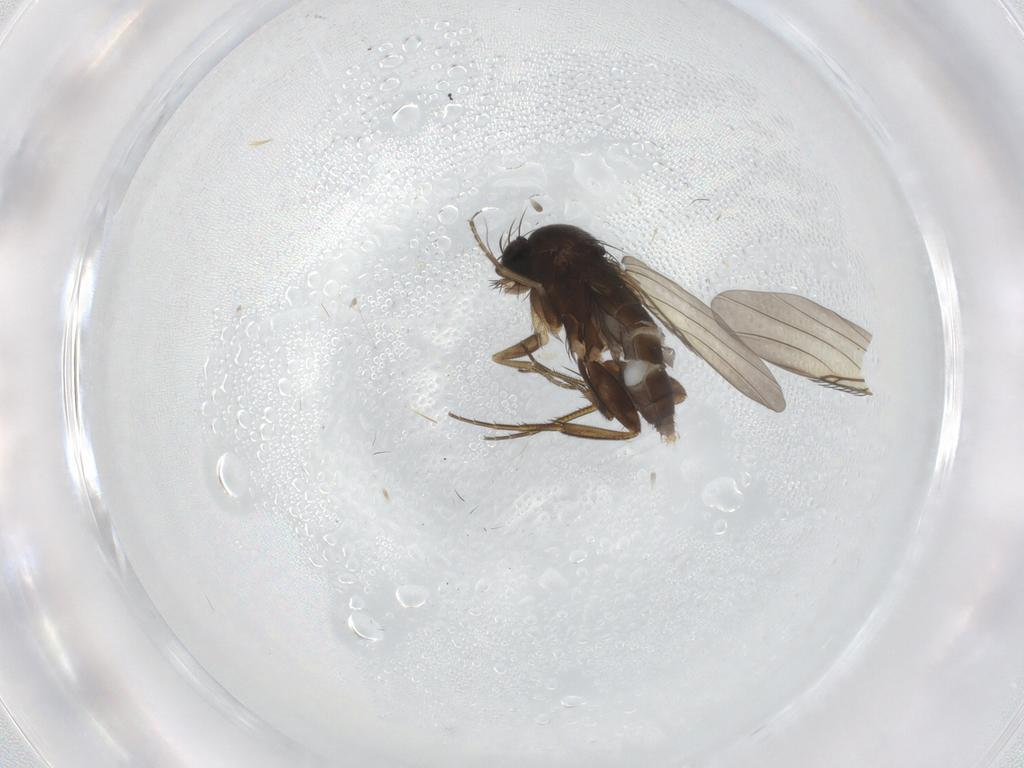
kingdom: Animalia
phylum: Arthropoda
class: Insecta
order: Diptera
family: Phoridae
